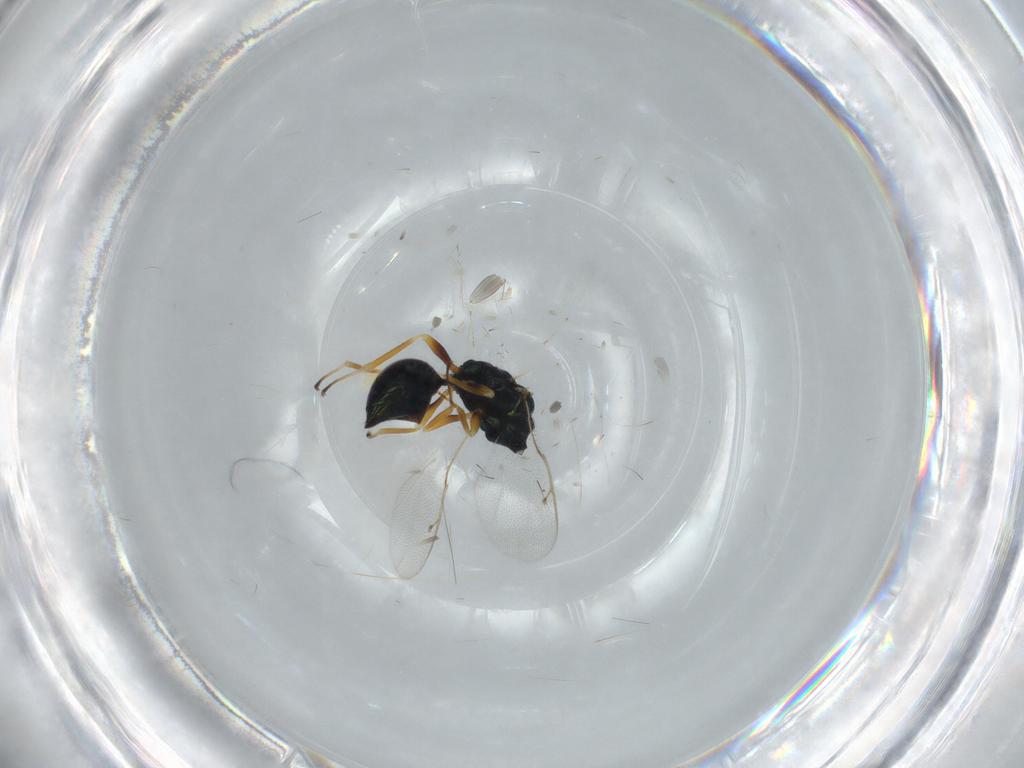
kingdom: Animalia
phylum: Arthropoda
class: Insecta
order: Hymenoptera
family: Pteromalidae
